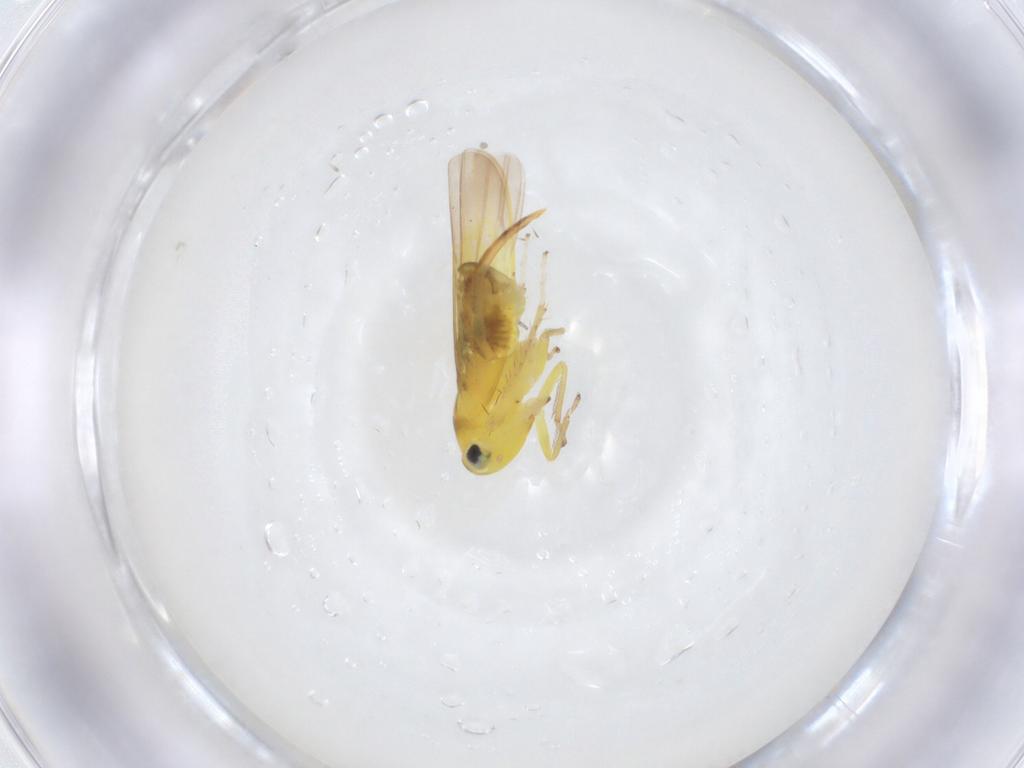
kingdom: Animalia
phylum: Arthropoda
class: Insecta
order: Hemiptera
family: Cicadellidae
